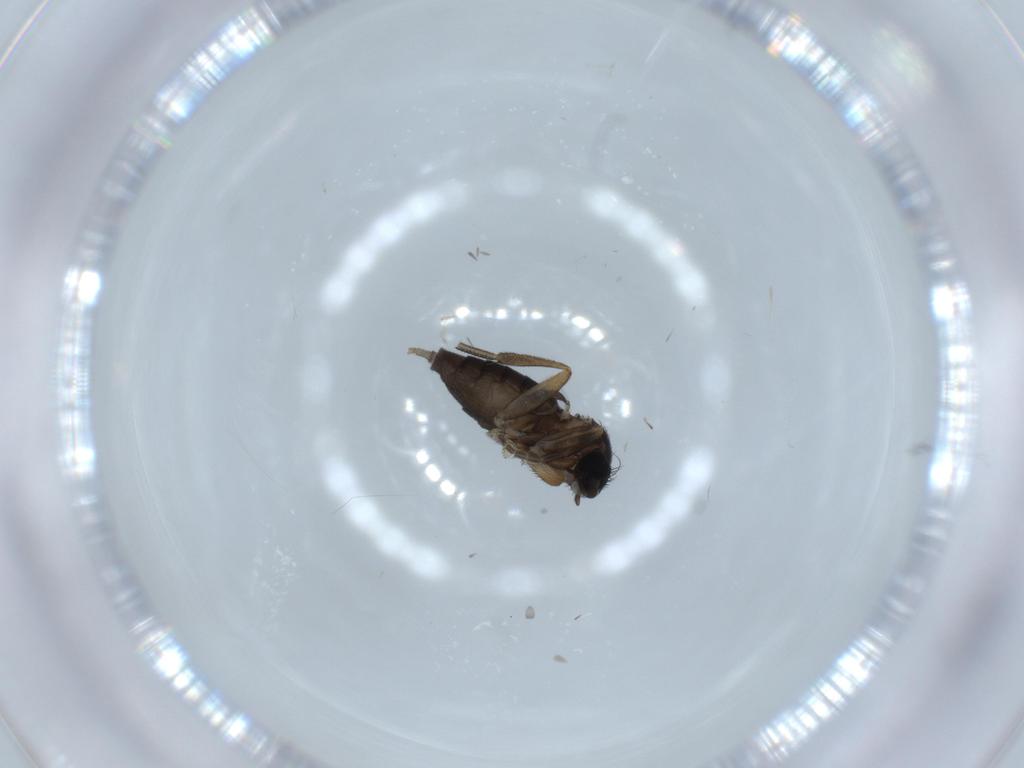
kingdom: Animalia
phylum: Arthropoda
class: Insecta
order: Diptera
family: Phoridae
